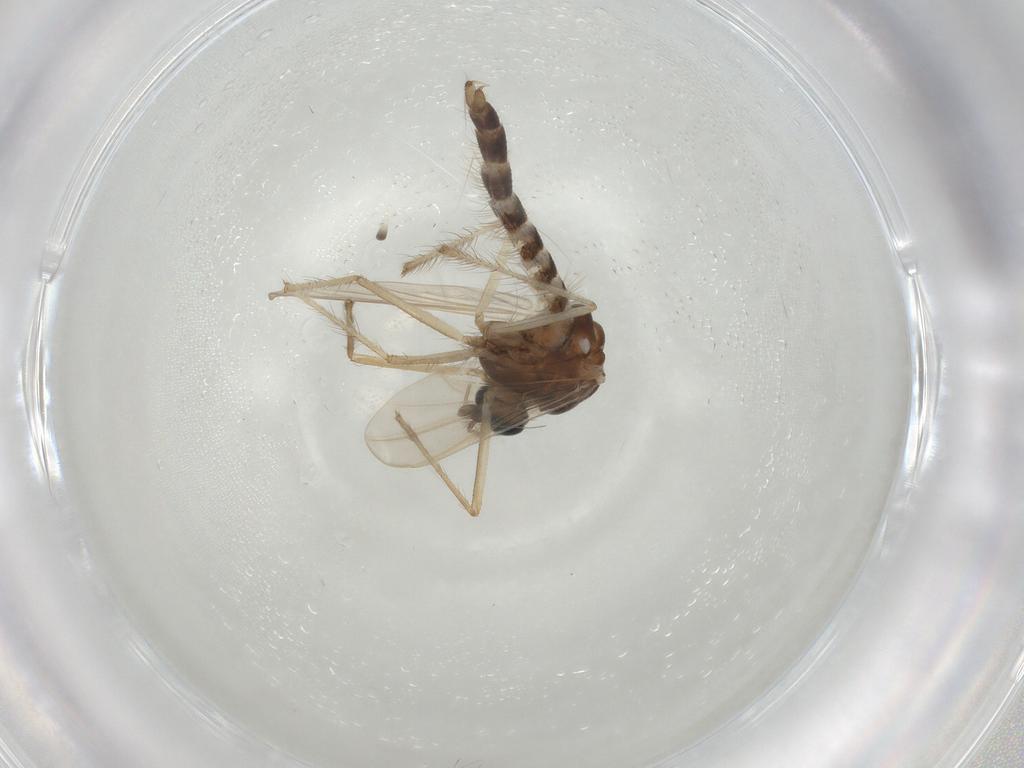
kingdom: Animalia
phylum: Arthropoda
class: Insecta
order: Diptera
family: Chironomidae
